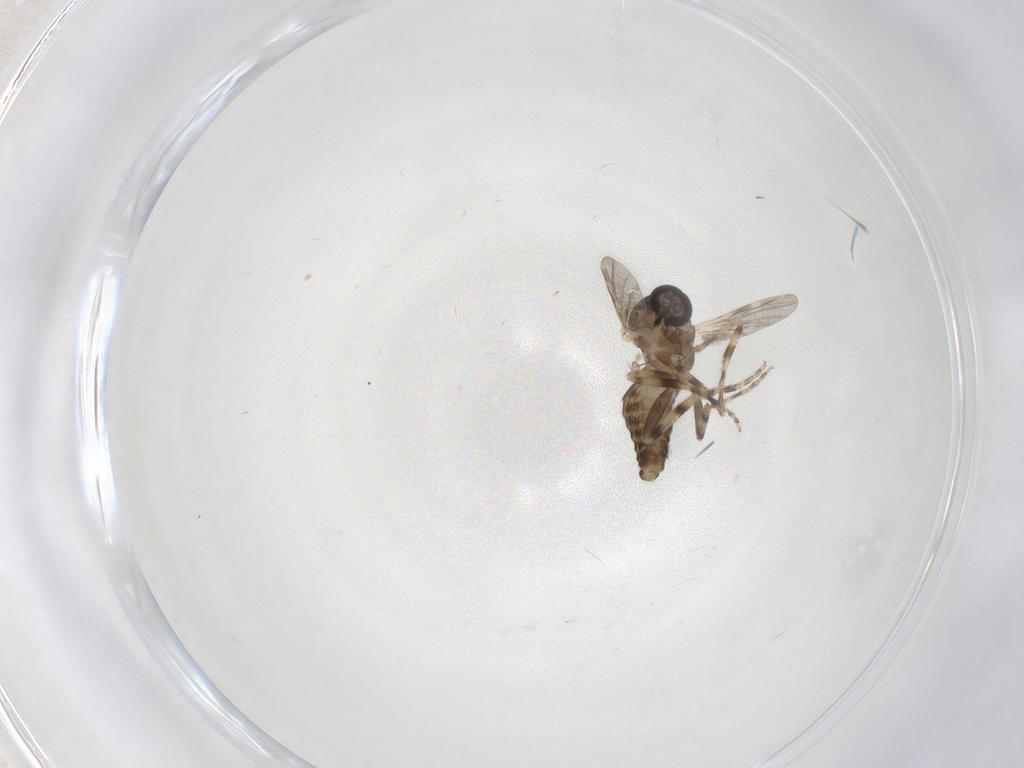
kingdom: Animalia
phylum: Arthropoda
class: Insecta
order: Diptera
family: Ceratopogonidae
